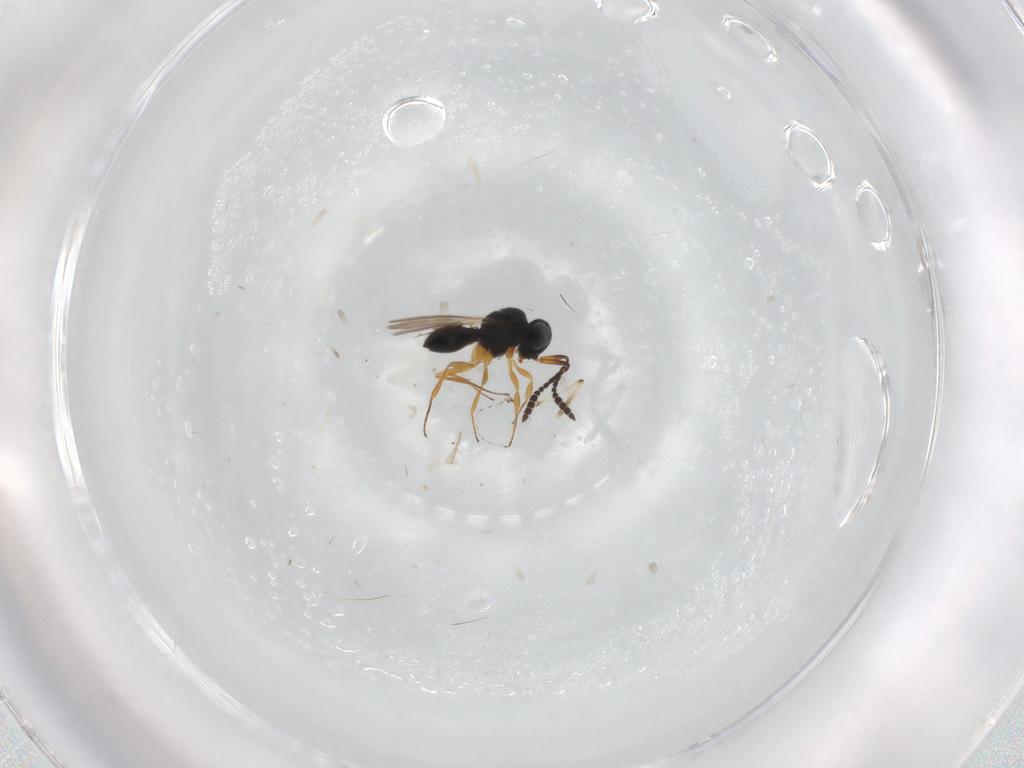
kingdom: Animalia
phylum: Arthropoda
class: Insecta
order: Hymenoptera
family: Scelionidae
